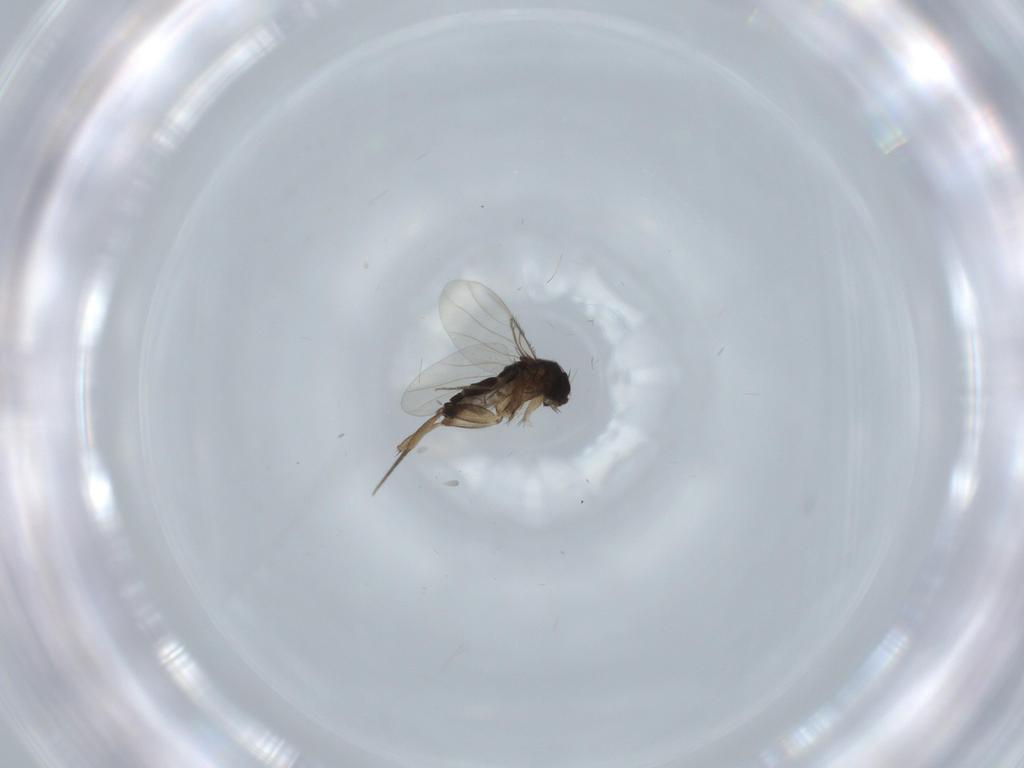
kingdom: Animalia
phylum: Arthropoda
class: Insecta
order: Diptera
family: Phoridae
